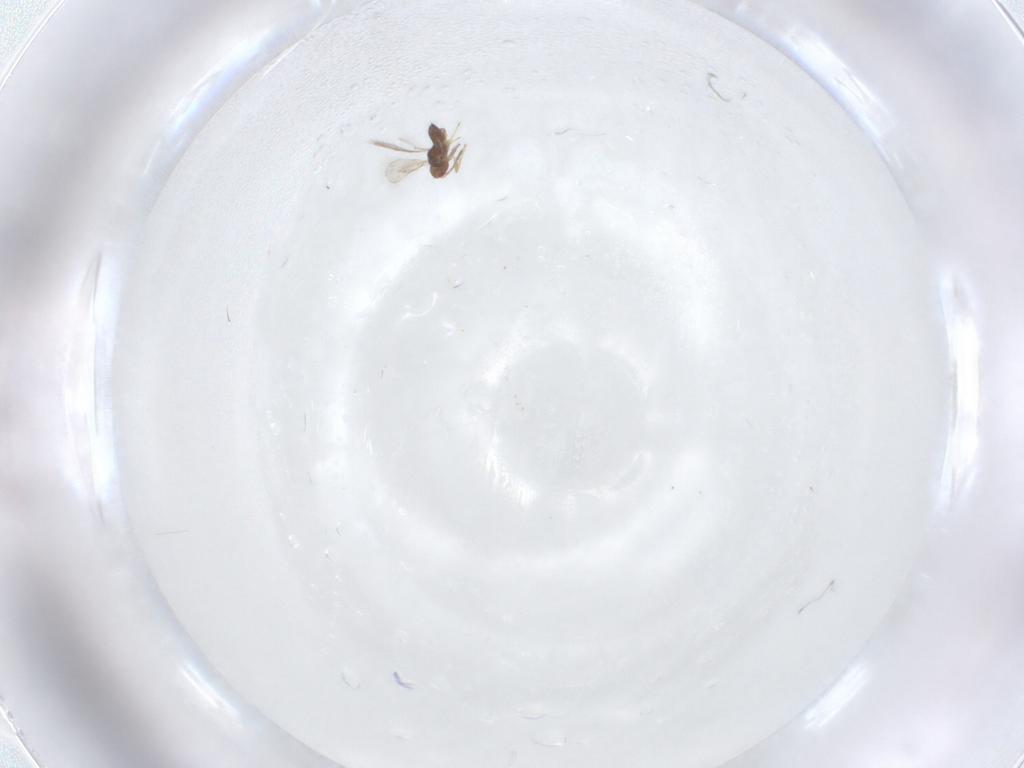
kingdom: Animalia
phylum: Arthropoda
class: Insecta
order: Hymenoptera
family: Eulophidae
